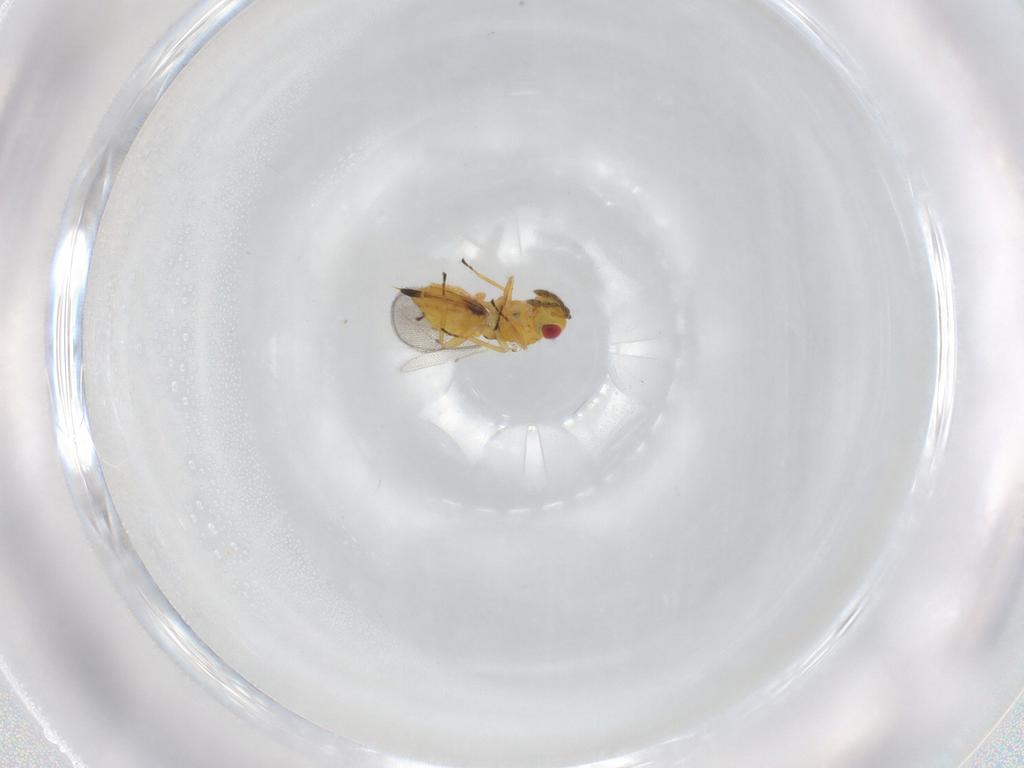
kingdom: Animalia
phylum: Arthropoda
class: Insecta
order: Hymenoptera
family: Eulophidae
